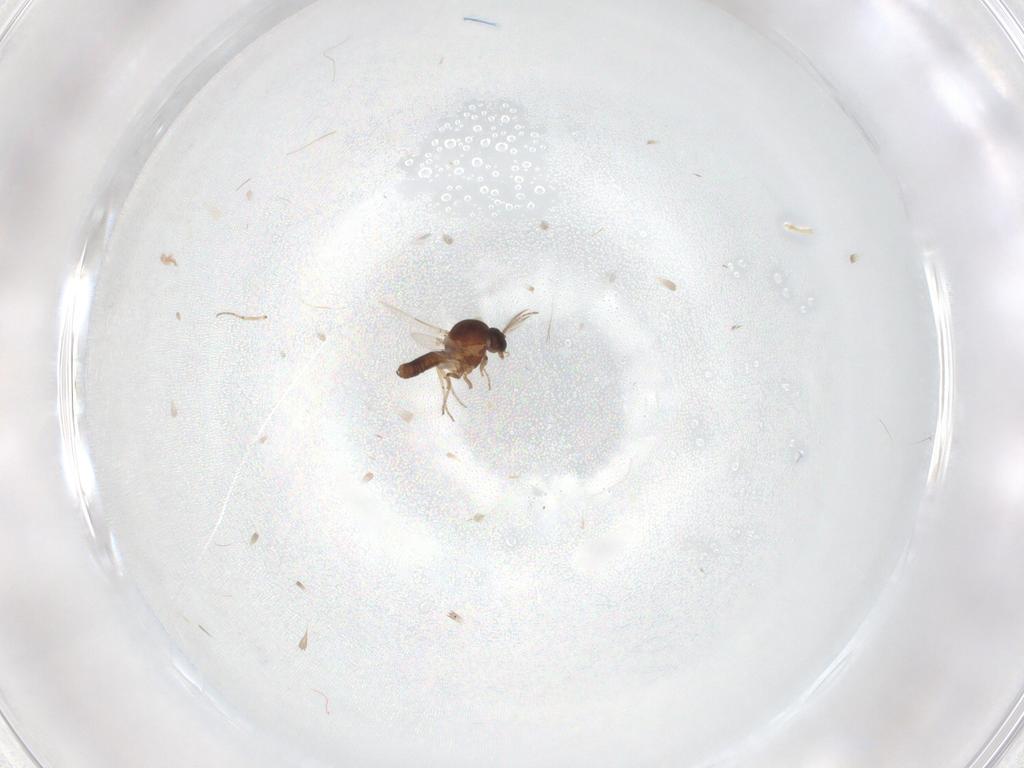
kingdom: Animalia
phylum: Arthropoda
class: Insecta
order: Diptera
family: Limoniidae
